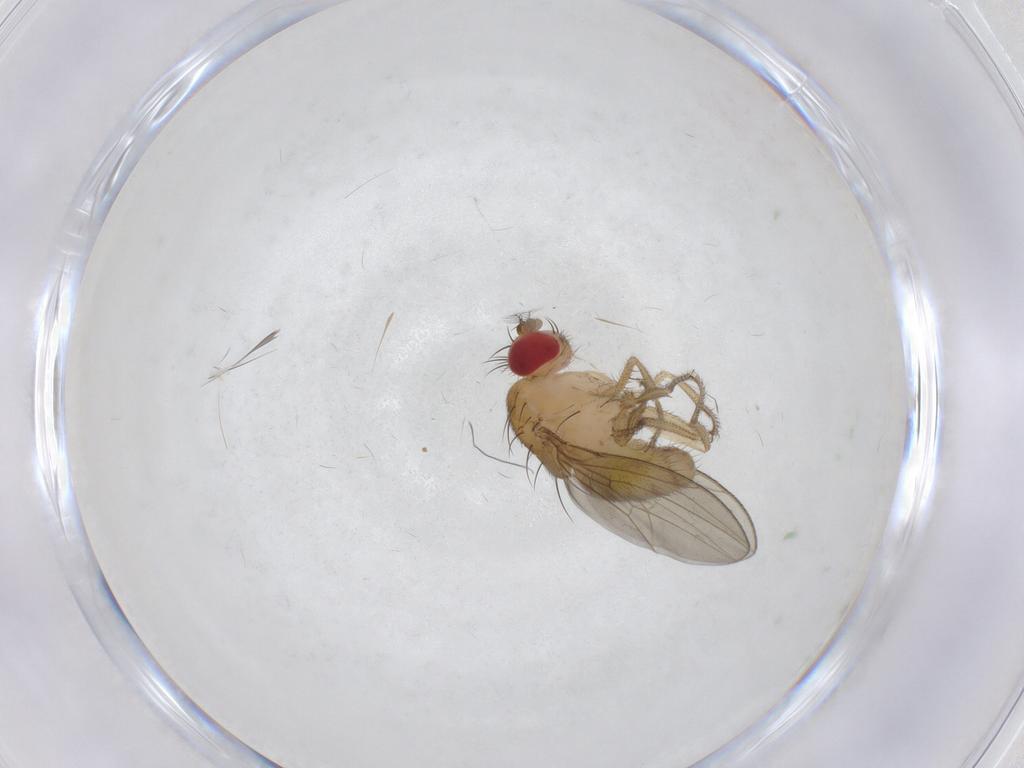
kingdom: Animalia
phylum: Arthropoda
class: Insecta
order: Diptera
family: Drosophilidae
